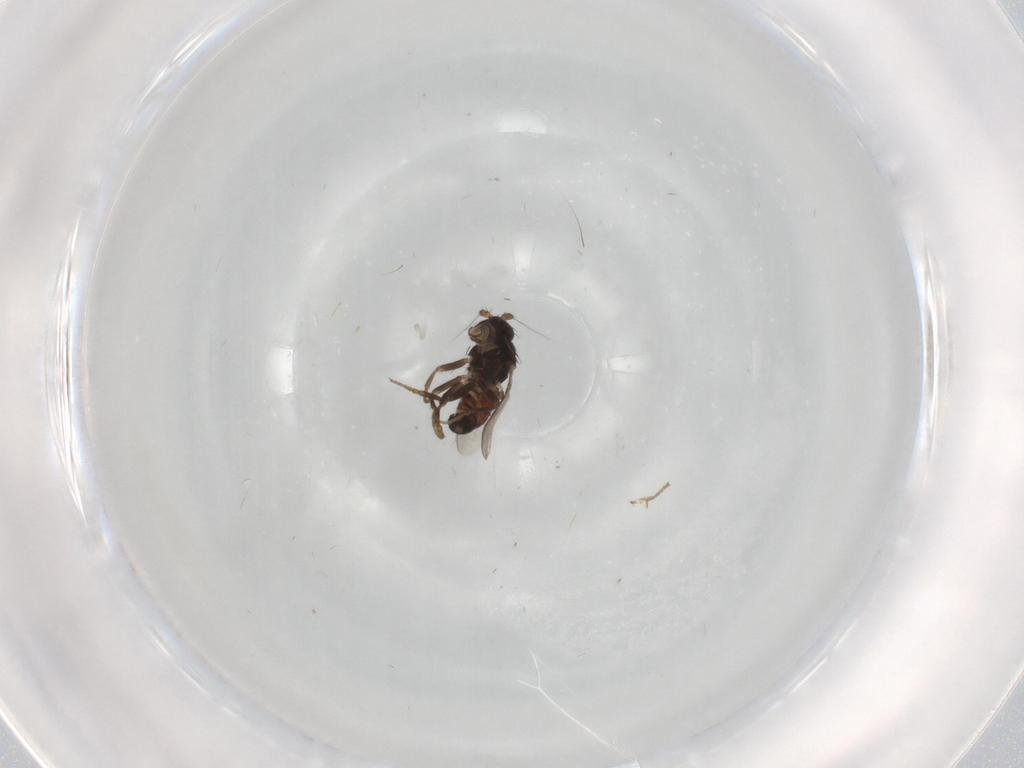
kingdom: Animalia
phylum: Arthropoda
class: Insecta
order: Diptera
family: Sphaeroceridae
